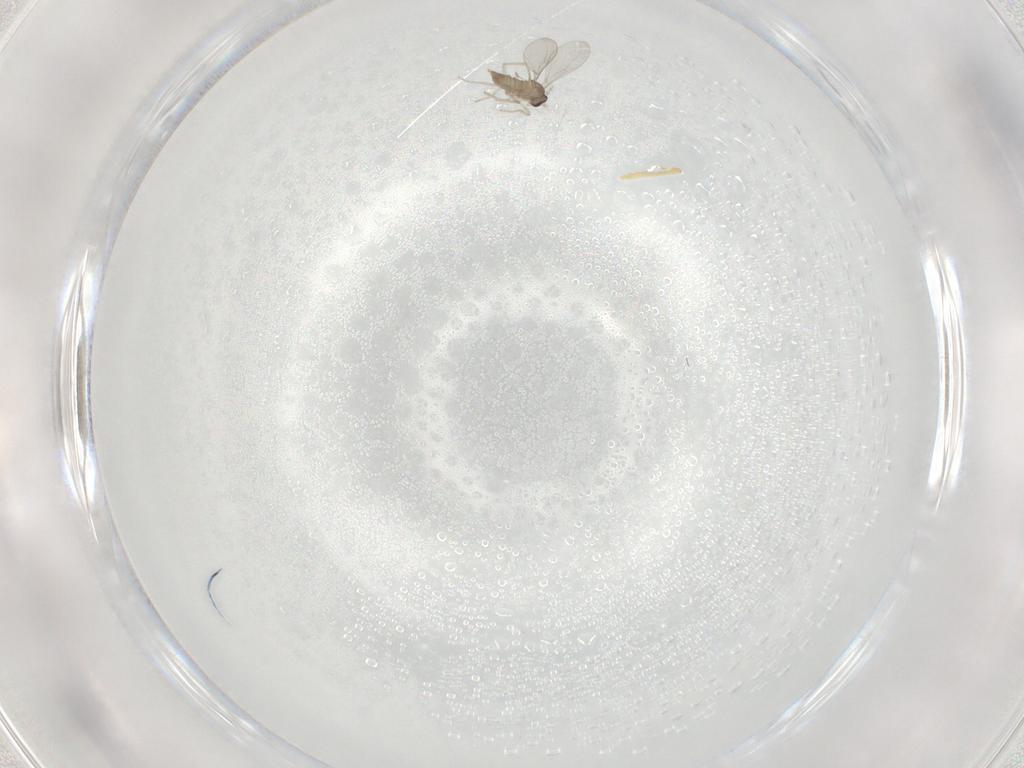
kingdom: Animalia
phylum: Arthropoda
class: Insecta
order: Diptera
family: Cecidomyiidae
